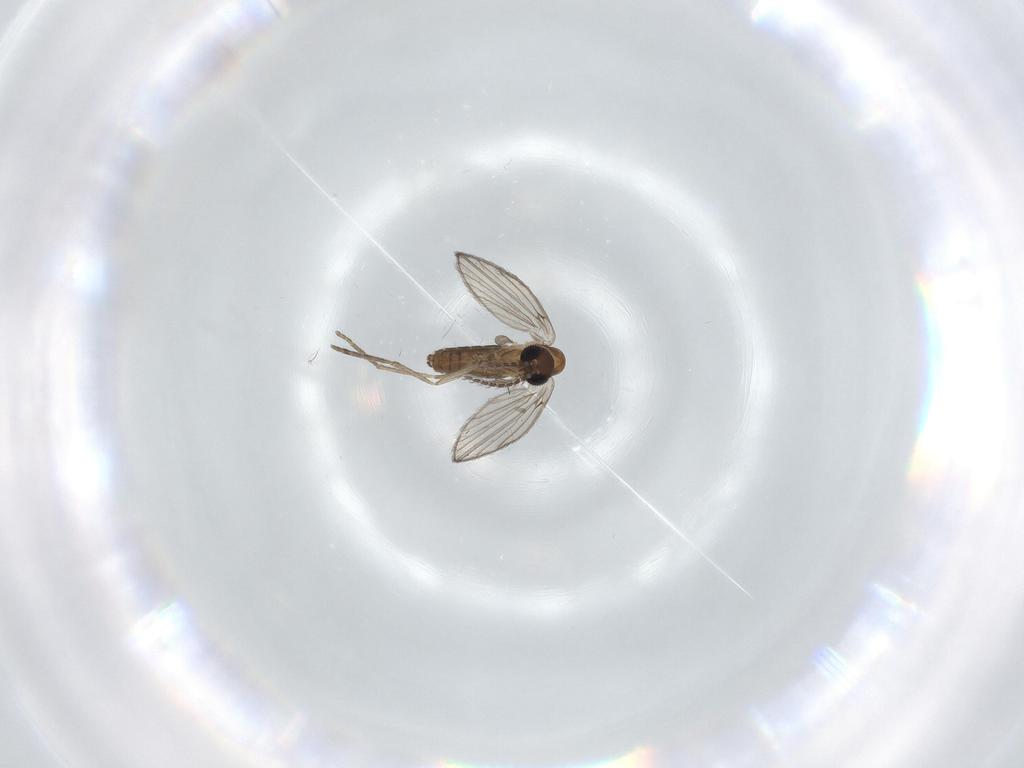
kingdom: Animalia
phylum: Arthropoda
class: Insecta
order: Diptera
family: Psychodidae
